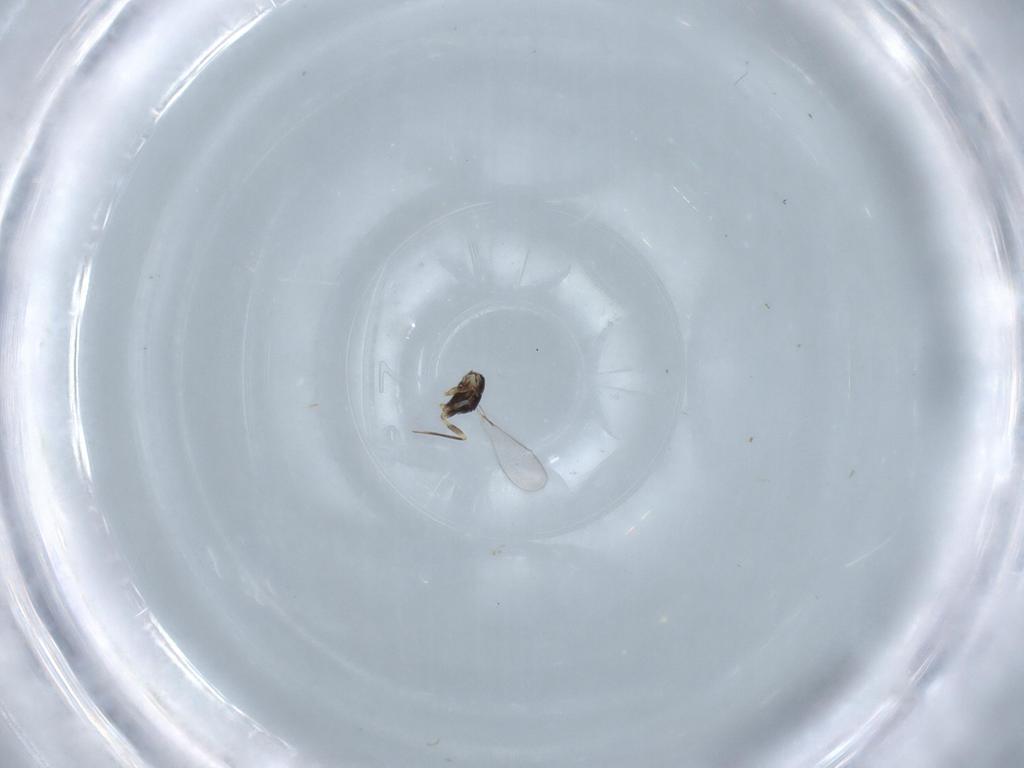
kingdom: Animalia
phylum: Arthropoda
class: Insecta
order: Hymenoptera
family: Mymaridae
